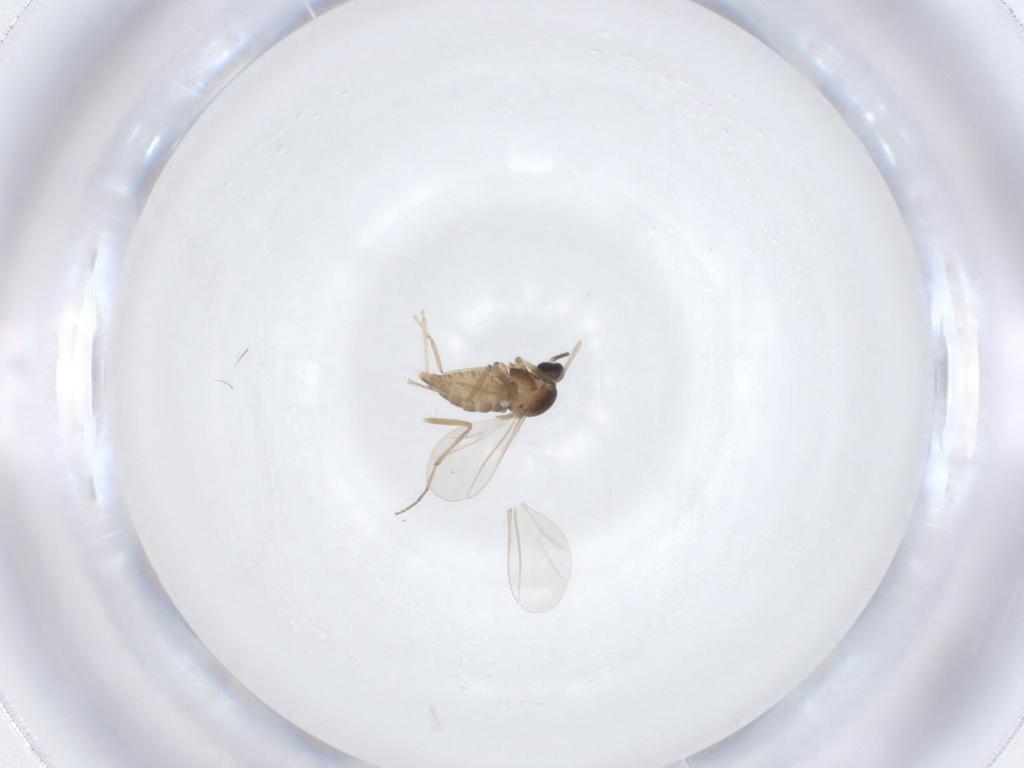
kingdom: Animalia
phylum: Arthropoda
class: Insecta
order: Diptera
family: Cecidomyiidae
